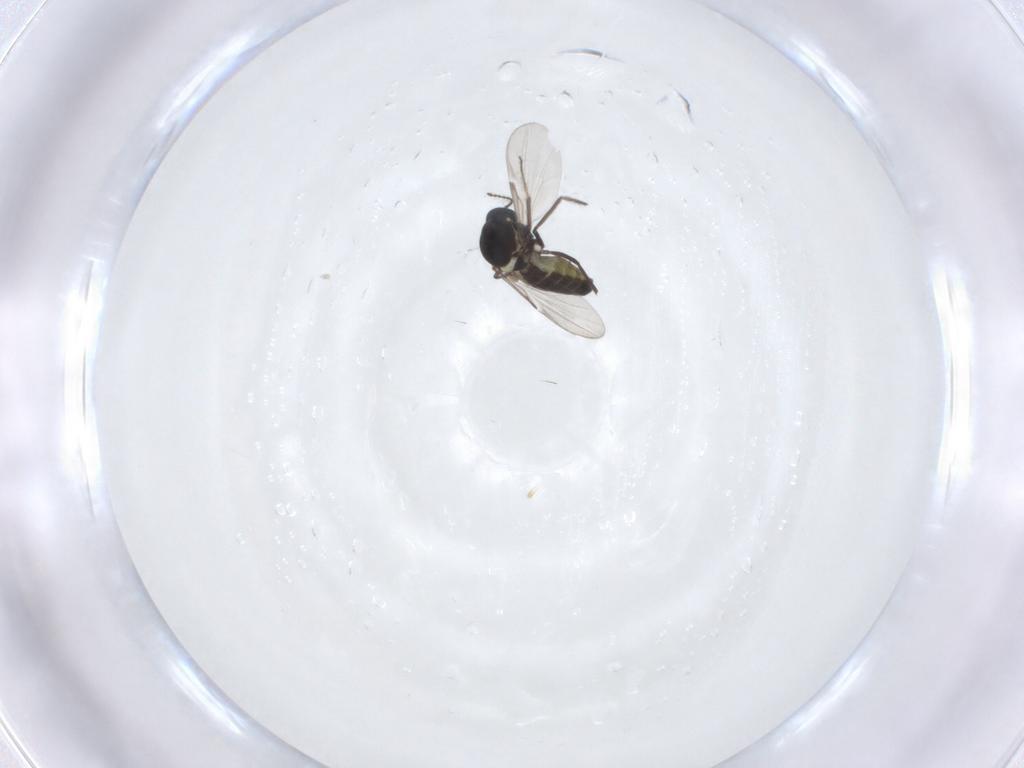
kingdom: Animalia
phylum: Arthropoda
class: Insecta
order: Diptera
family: Ceratopogonidae
